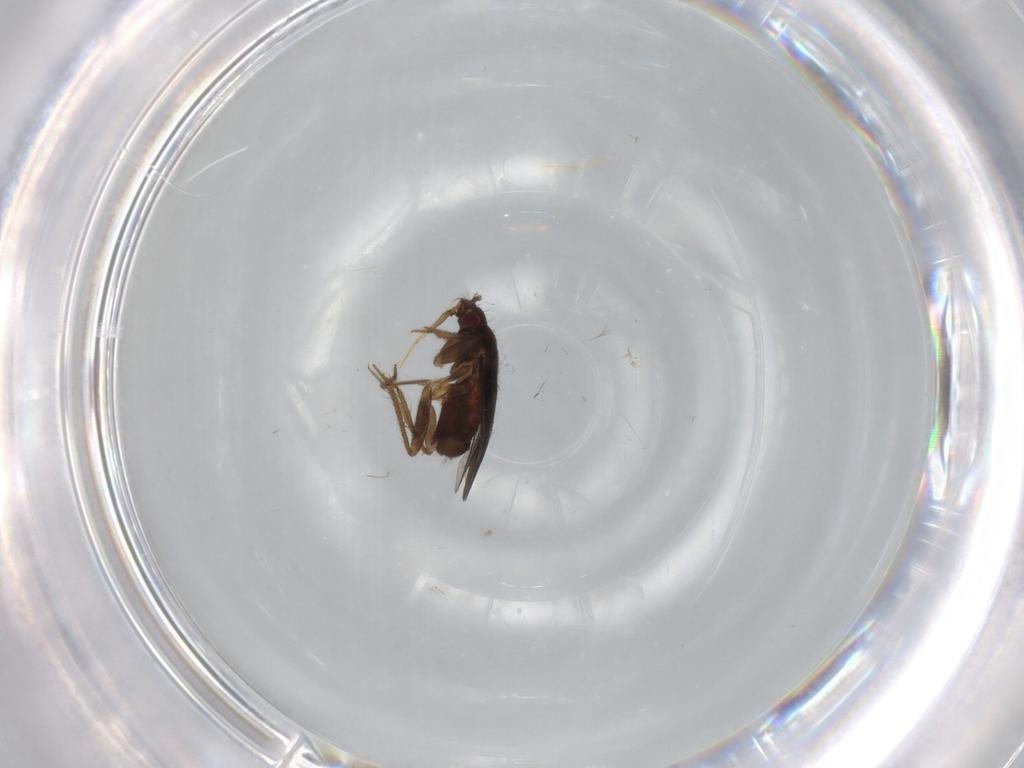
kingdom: Animalia
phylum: Arthropoda
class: Insecta
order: Hemiptera
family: Ceratocombidae
